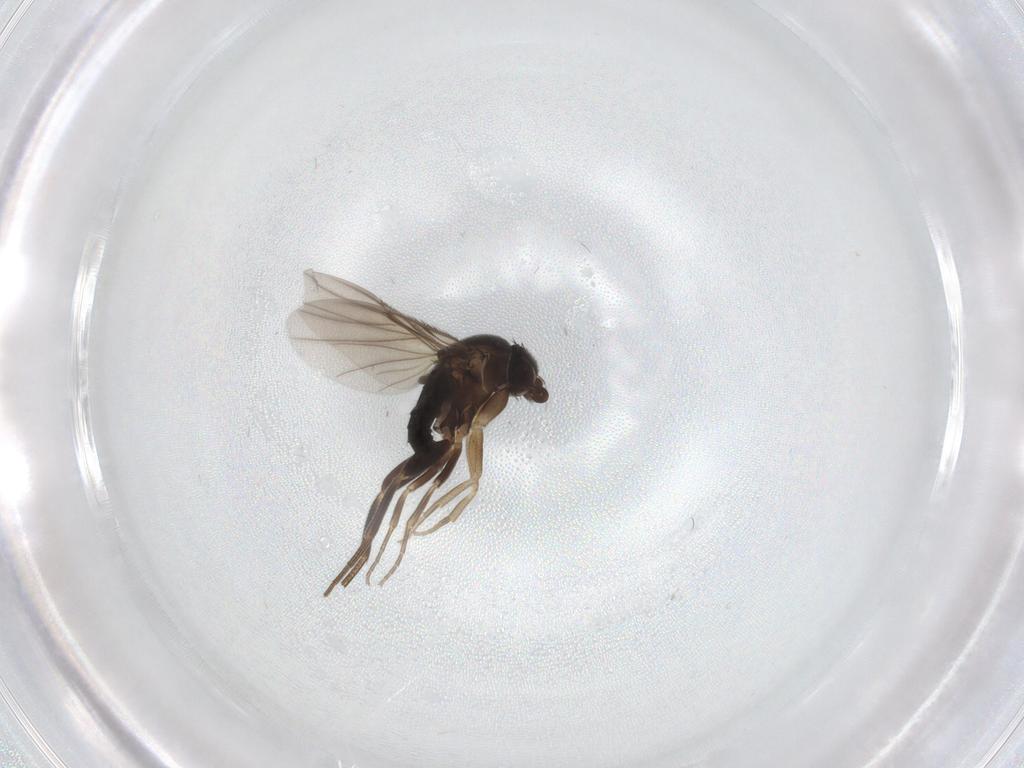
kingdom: Animalia
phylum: Arthropoda
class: Insecta
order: Diptera
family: Phoridae
